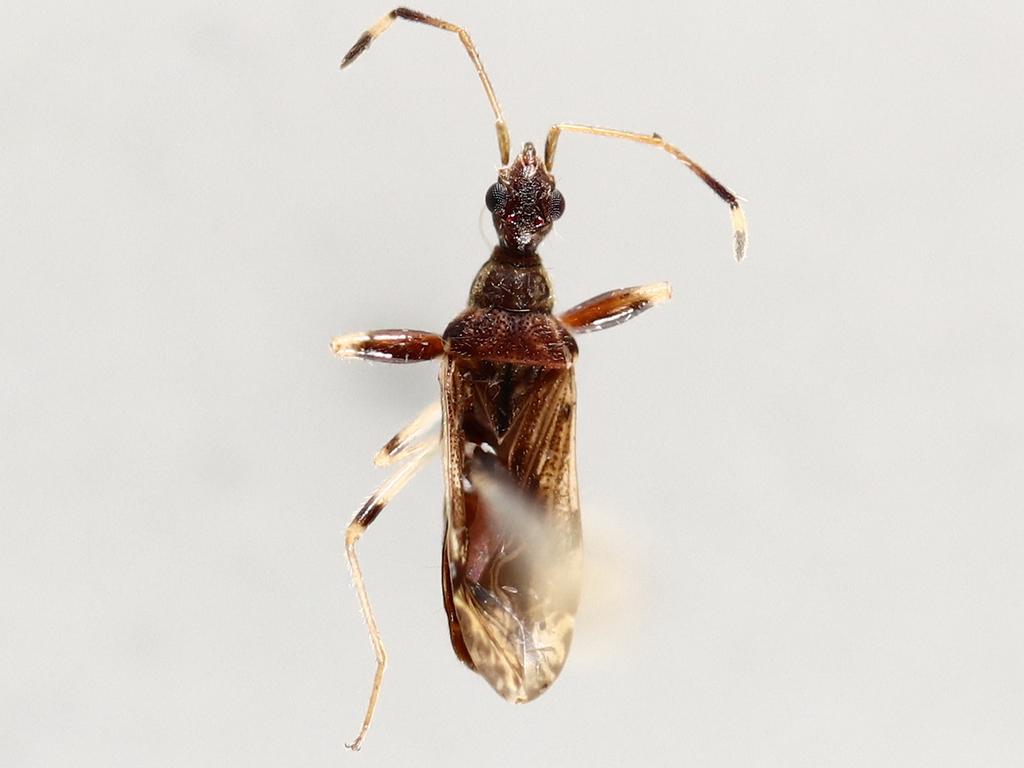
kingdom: Animalia
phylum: Arthropoda
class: Insecta
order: Diptera
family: Chironomidae
